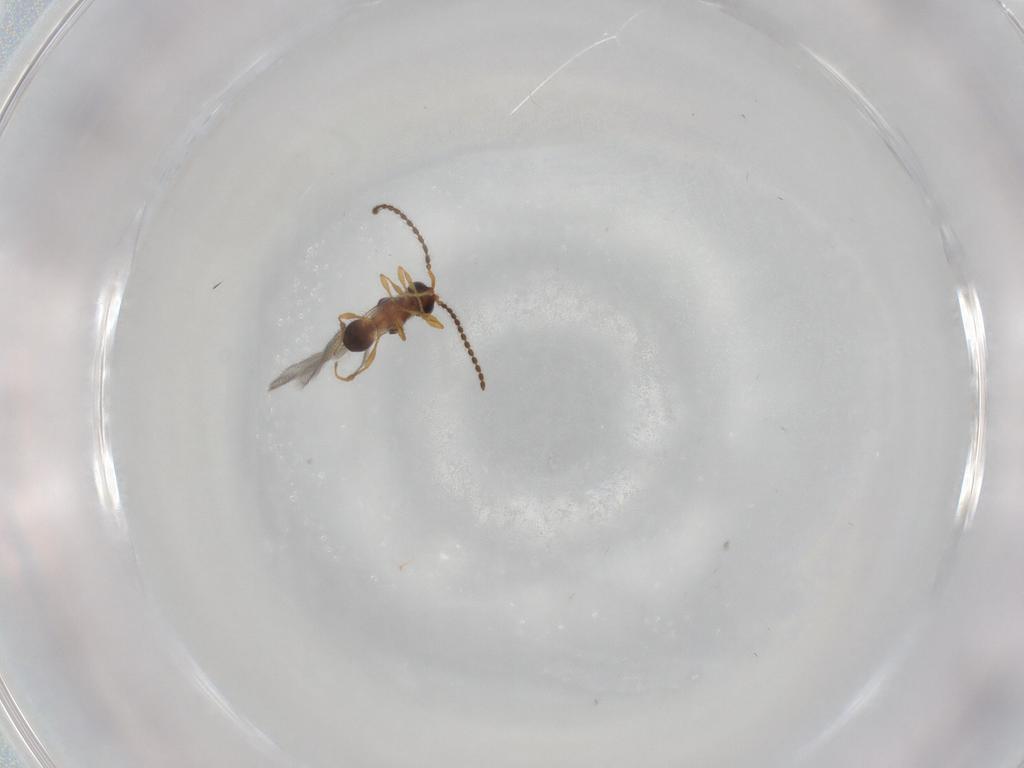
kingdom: Animalia
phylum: Arthropoda
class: Insecta
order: Hymenoptera
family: Diapriidae
